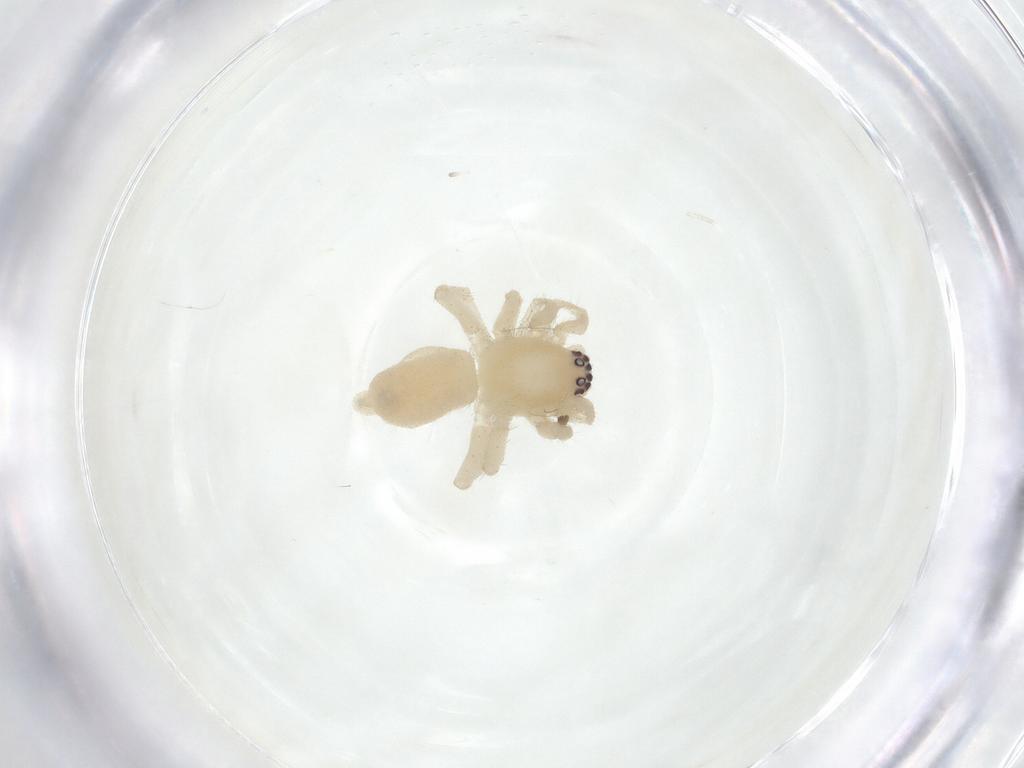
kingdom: Animalia
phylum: Arthropoda
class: Arachnida
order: Araneae
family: Clubionidae
